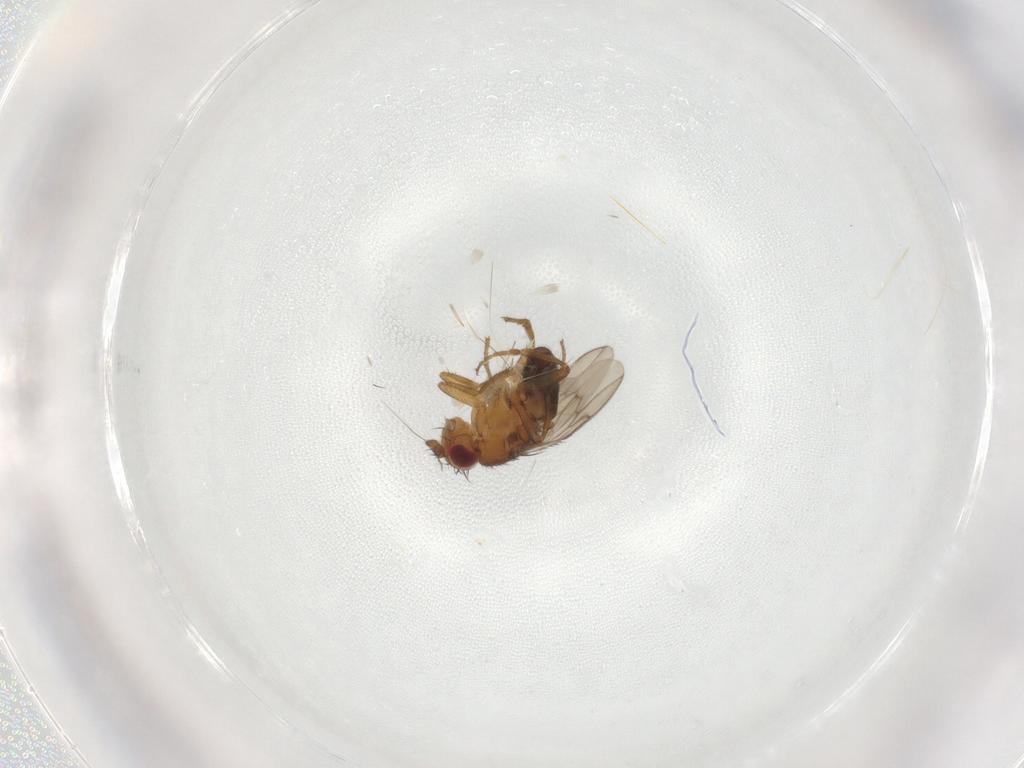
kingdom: Animalia
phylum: Arthropoda
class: Insecta
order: Diptera
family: Sphaeroceridae
